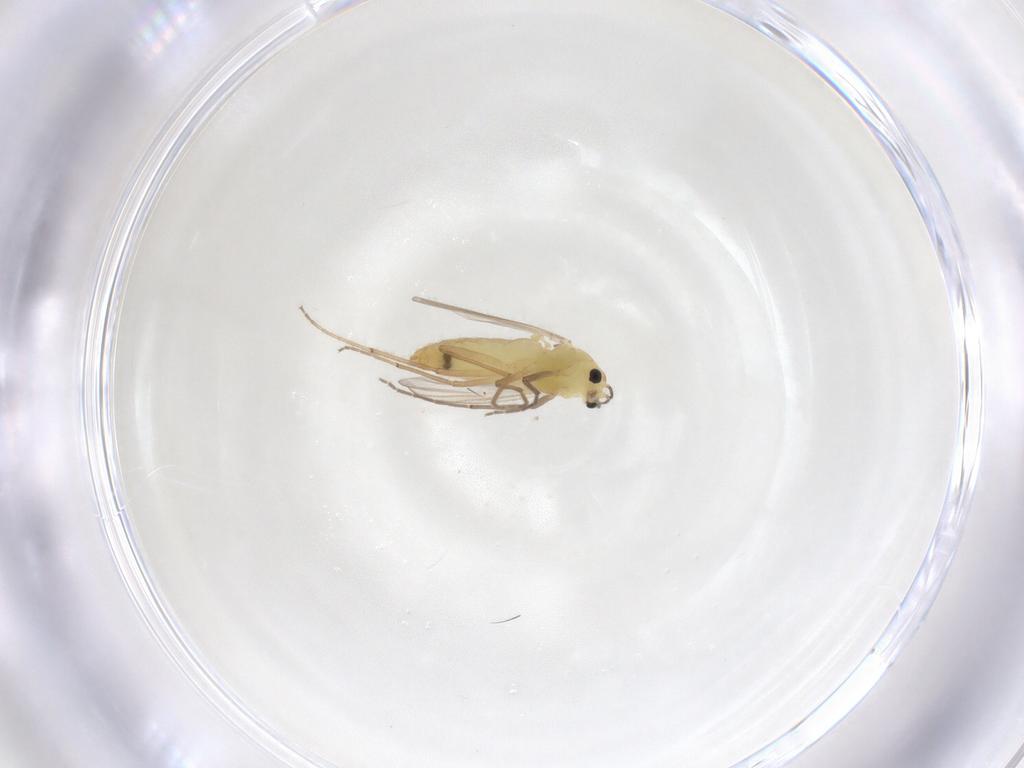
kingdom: Animalia
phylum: Arthropoda
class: Insecta
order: Diptera
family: Chironomidae
